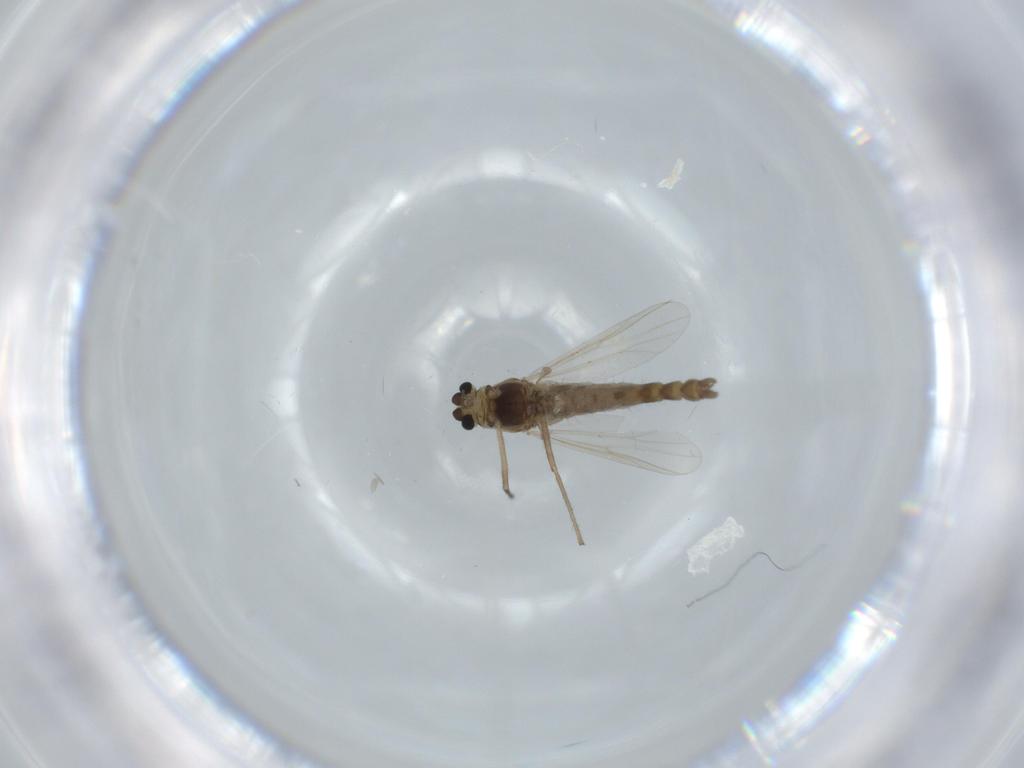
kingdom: Animalia
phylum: Arthropoda
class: Insecta
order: Diptera
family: Chironomidae
